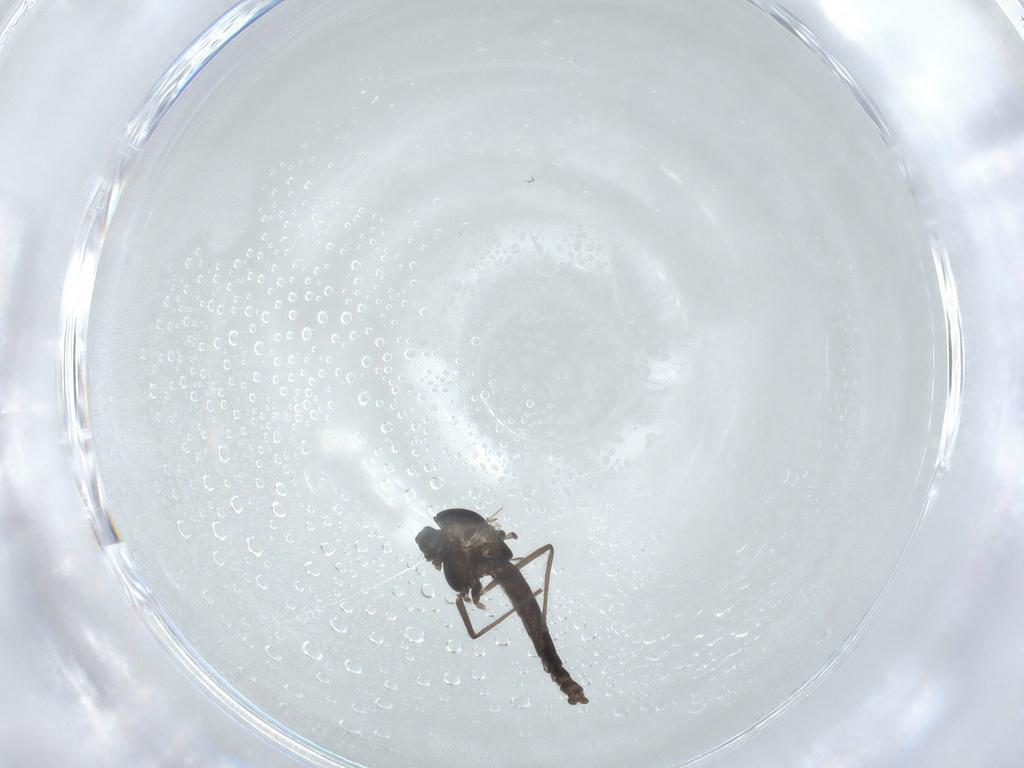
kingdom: Animalia
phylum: Arthropoda
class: Insecta
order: Diptera
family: Chironomidae
